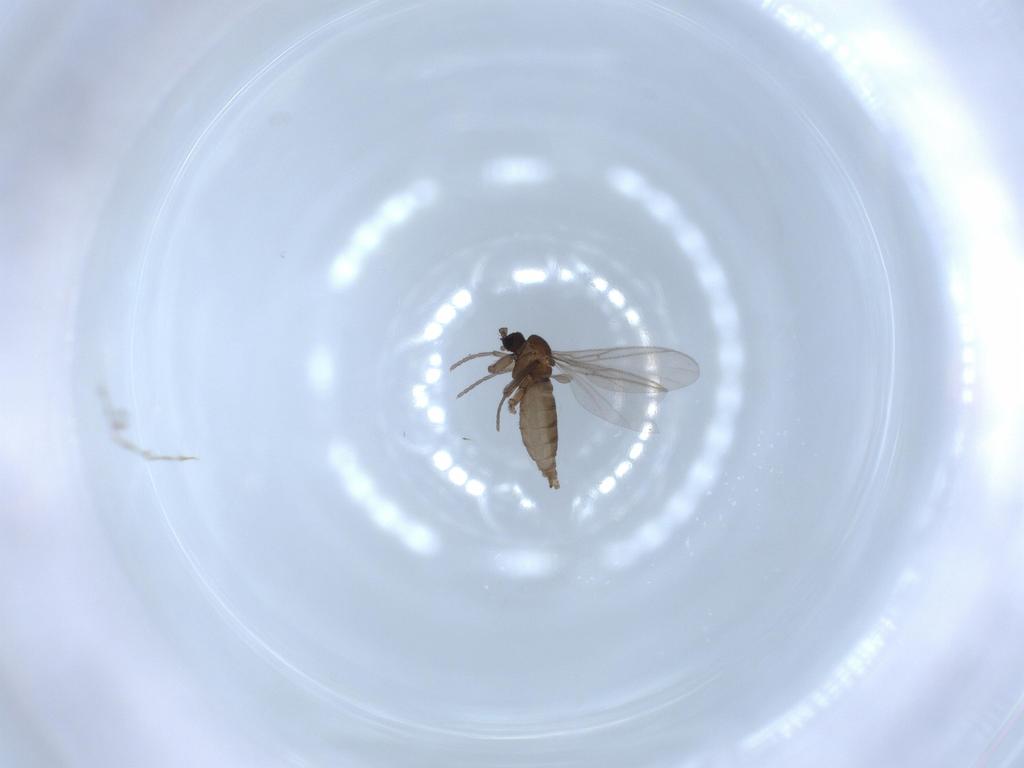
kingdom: Animalia
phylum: Arthropoda
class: Insecta
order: Diptera
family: Sciaridae
